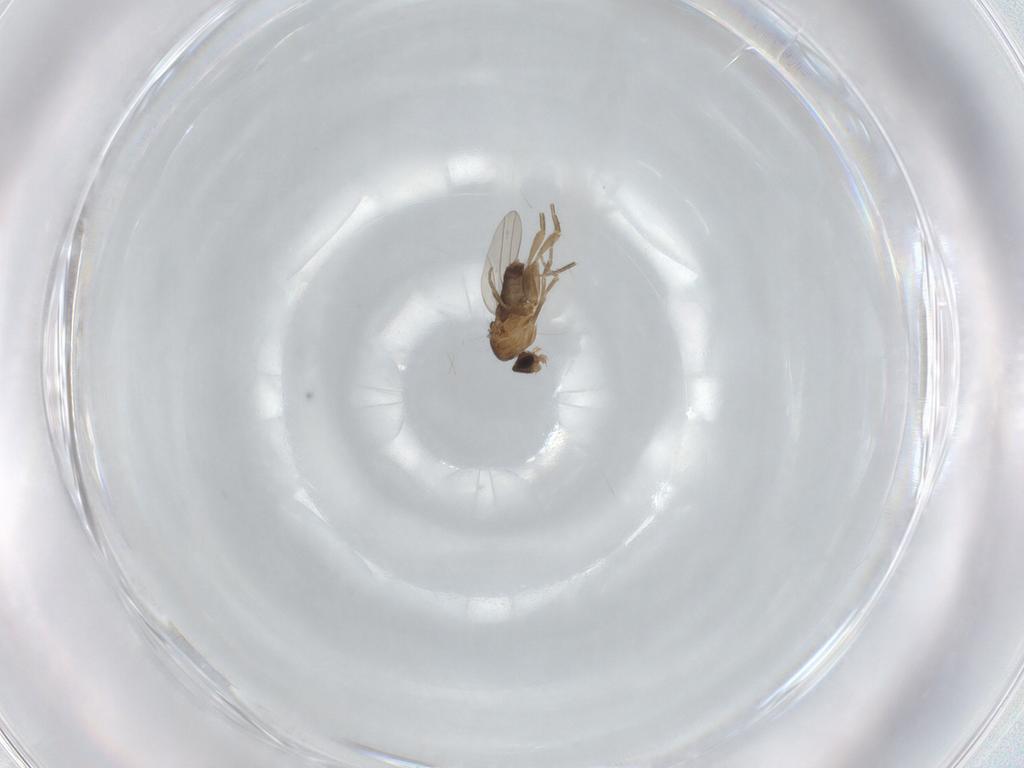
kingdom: Animalia
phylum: Arthropoda
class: Insecta
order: Diptera
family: Phoridae
